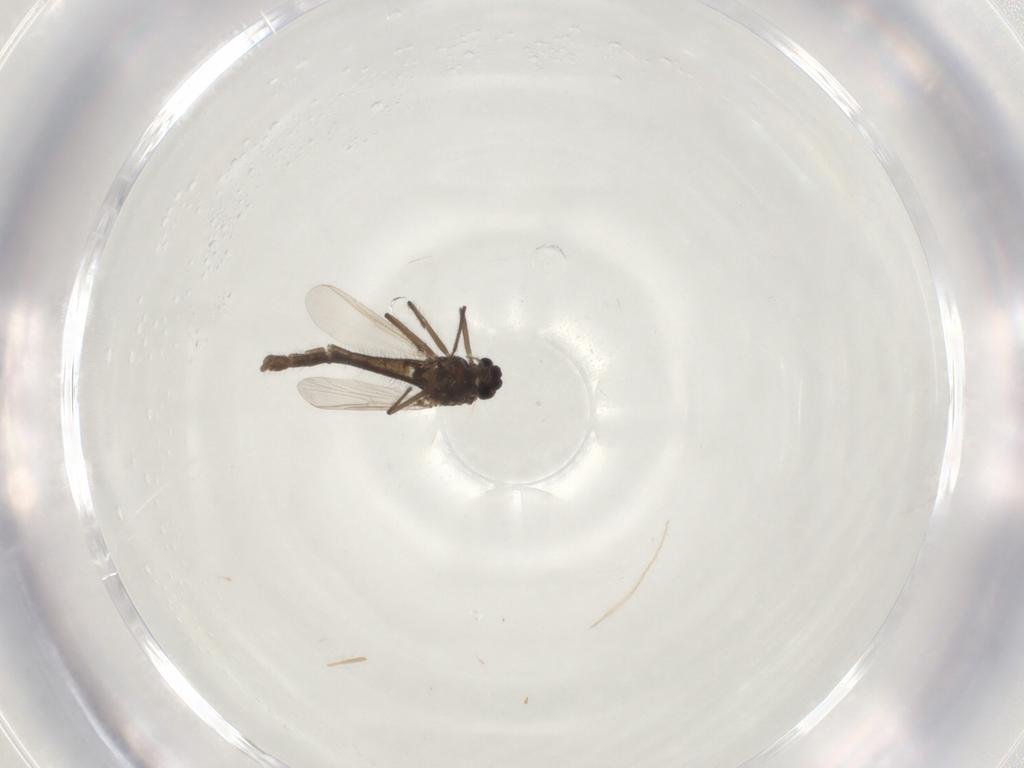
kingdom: Animalia
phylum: Arthropoda
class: Insecta
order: Diptera
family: Chironomidae
